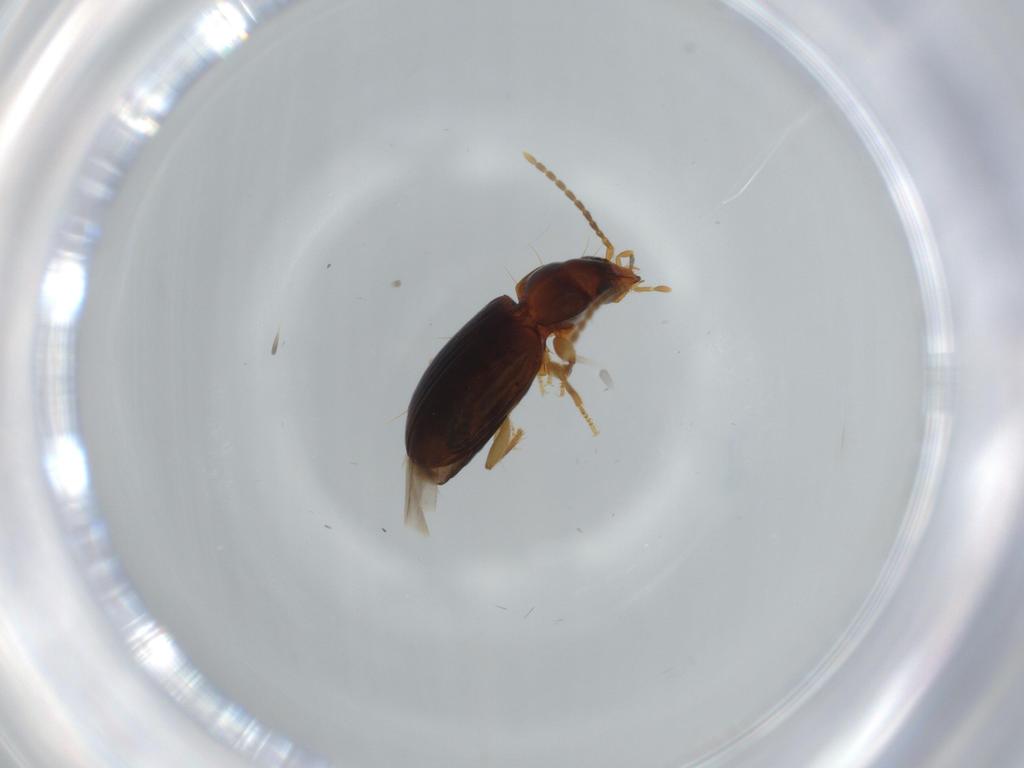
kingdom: Animalia
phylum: Arthropoda
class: Insecta
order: Coleoptera
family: Carabidae
